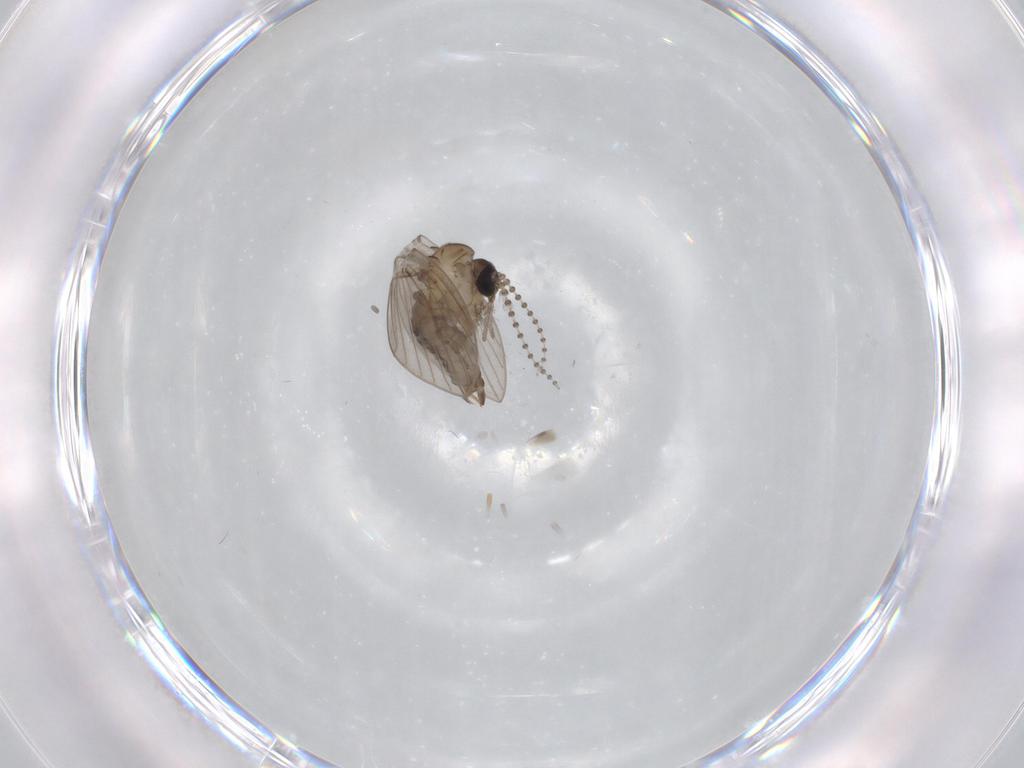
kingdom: Animalia
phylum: Arthropoda
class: Insecta
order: Diptera
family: Psychodidae
